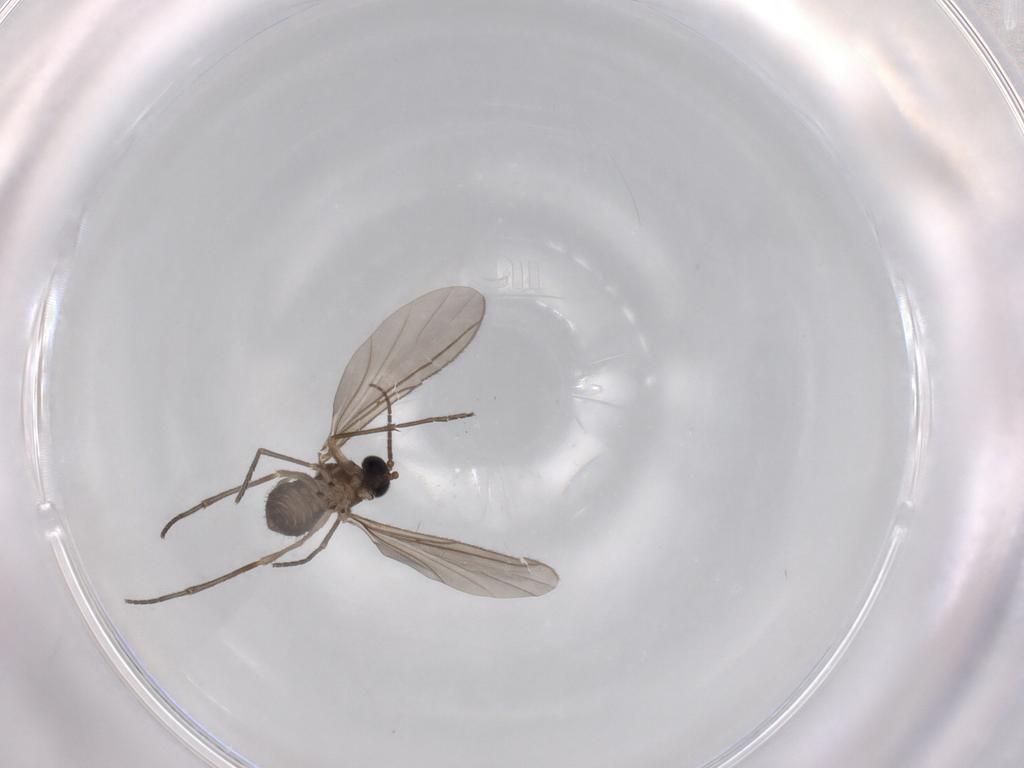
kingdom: Animalia
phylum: Arthropoda
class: Insecta
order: Diptera
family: Sciaridae
